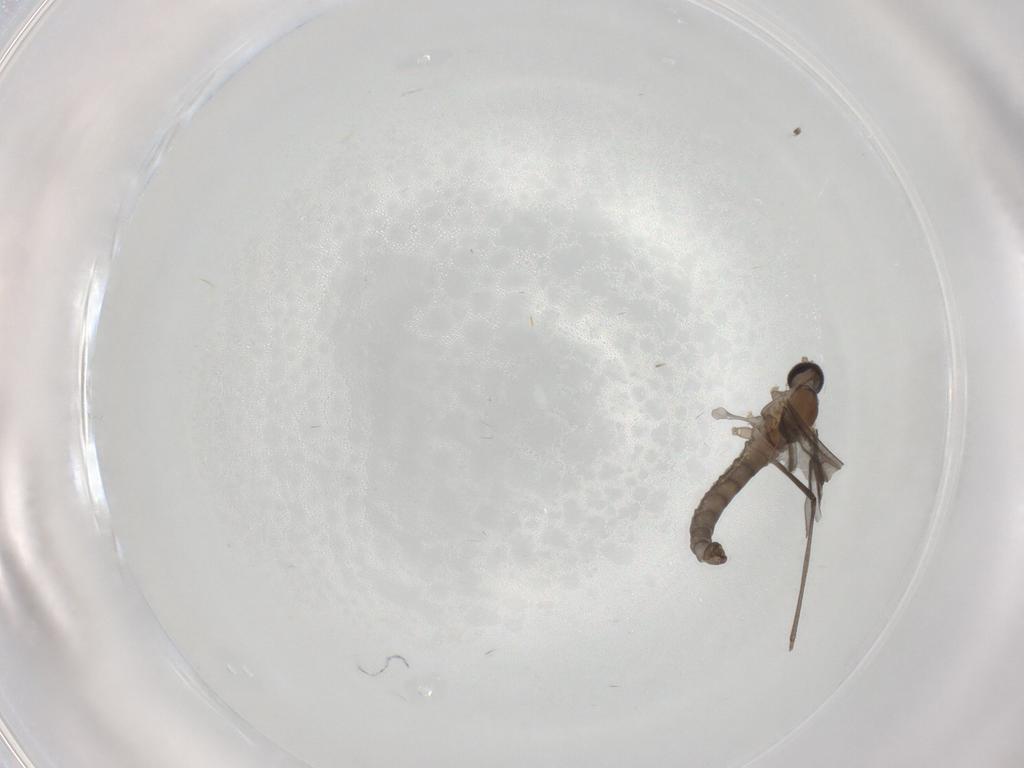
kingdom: Animalia
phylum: Arthropoda
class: Insecta
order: Diptera
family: Cecidomyiidae
